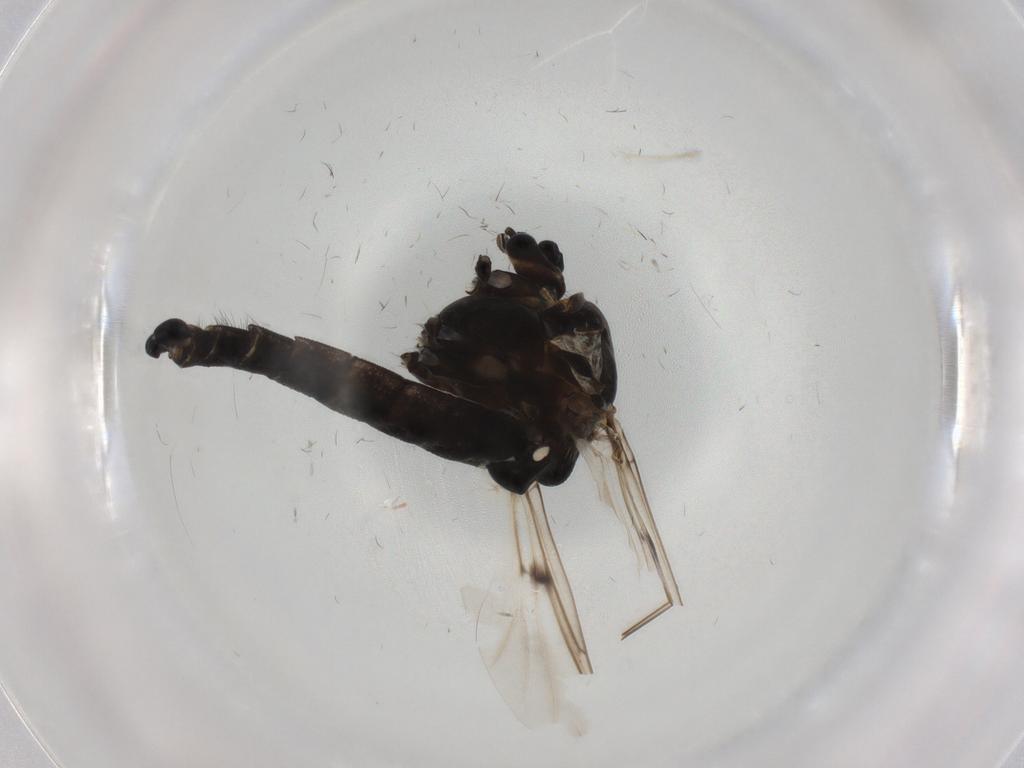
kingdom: Animalia
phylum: Arthropoda
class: Insecta
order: Diptera
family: Chironomidae
